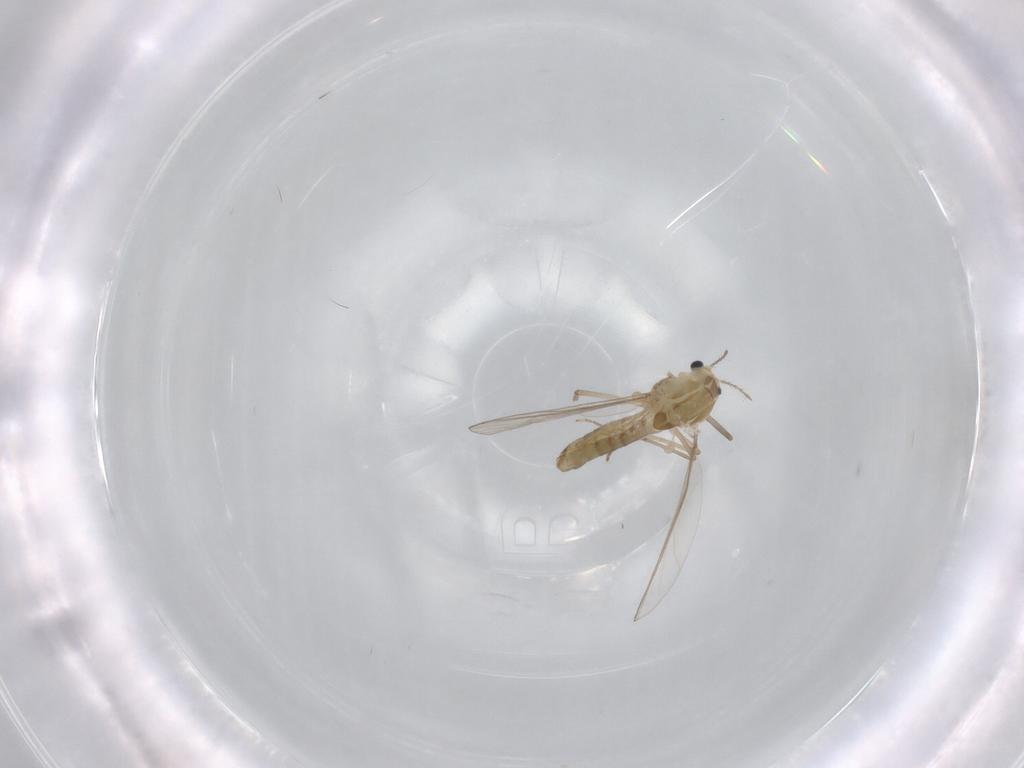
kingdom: Animalia
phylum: Arthropoda
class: Insecta
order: Diptera
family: Chironomidae
